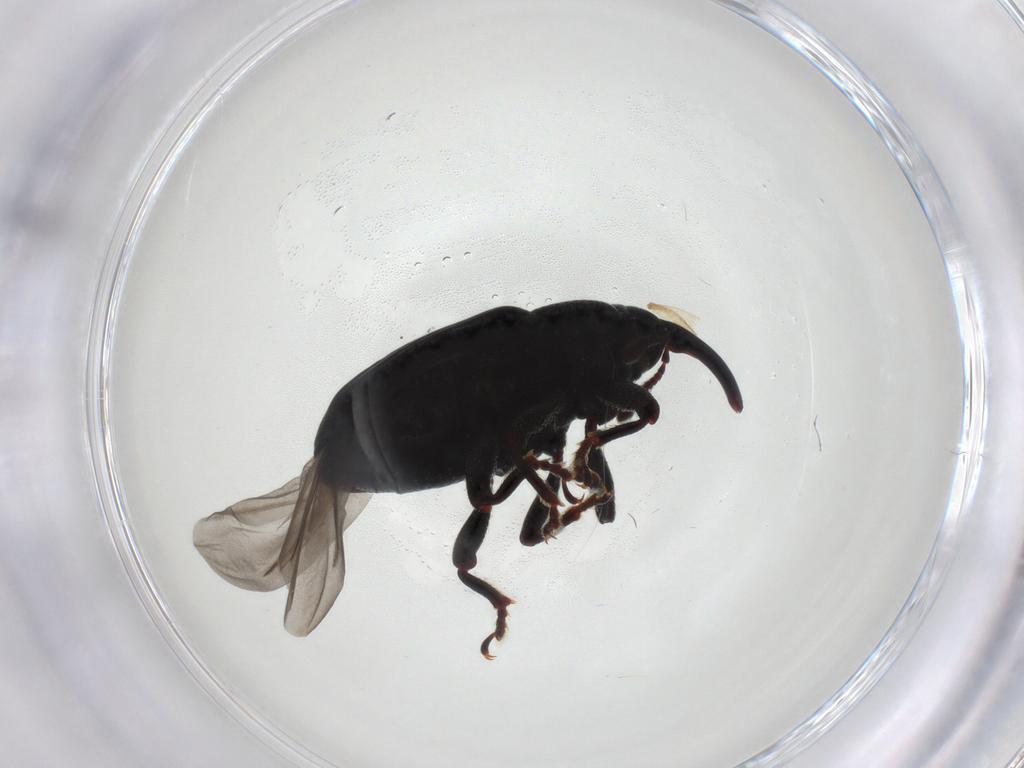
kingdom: Animalia
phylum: Arthropoda
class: Insecta
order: Coleoptera
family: Curculionidae
